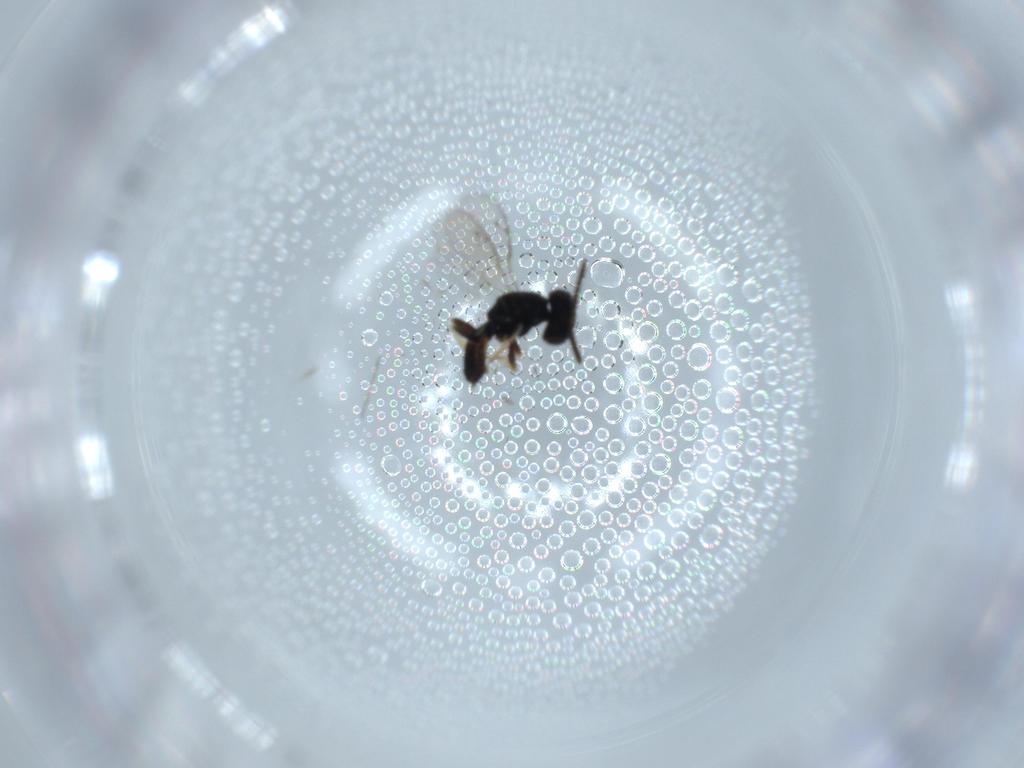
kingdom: Animalia
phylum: Arthropoda
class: Insecta
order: Hymenoptera
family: Pteromalidae
